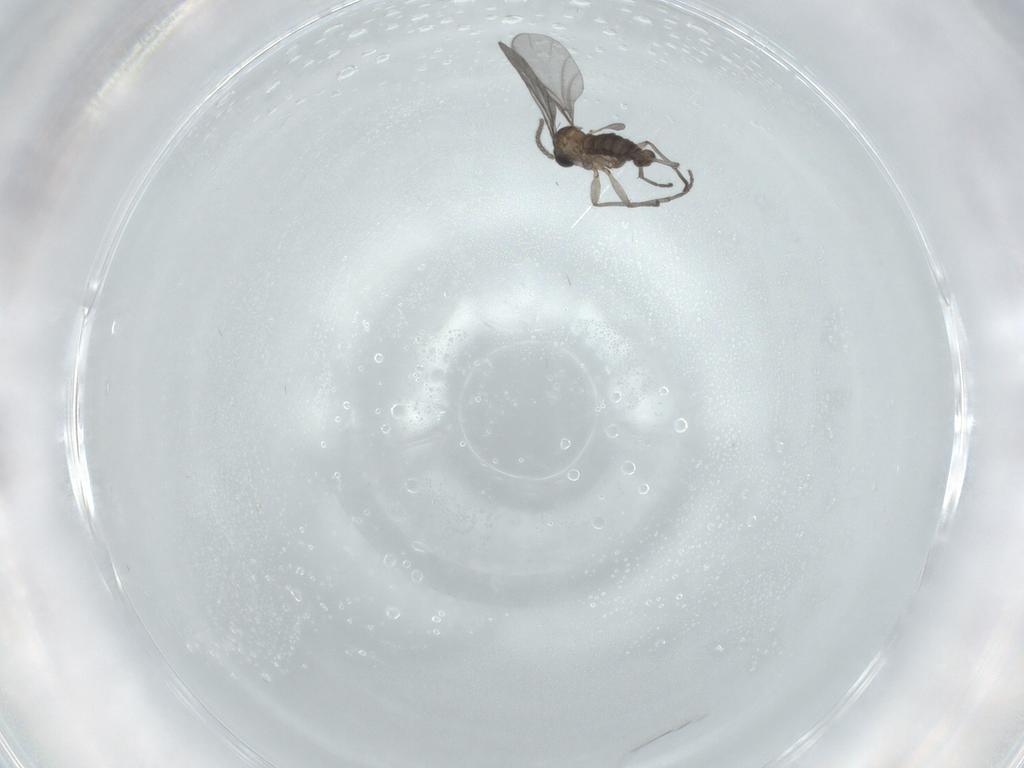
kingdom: Animalia
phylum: Arthropoda
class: Insecta
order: Diptera
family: Sciaridae
